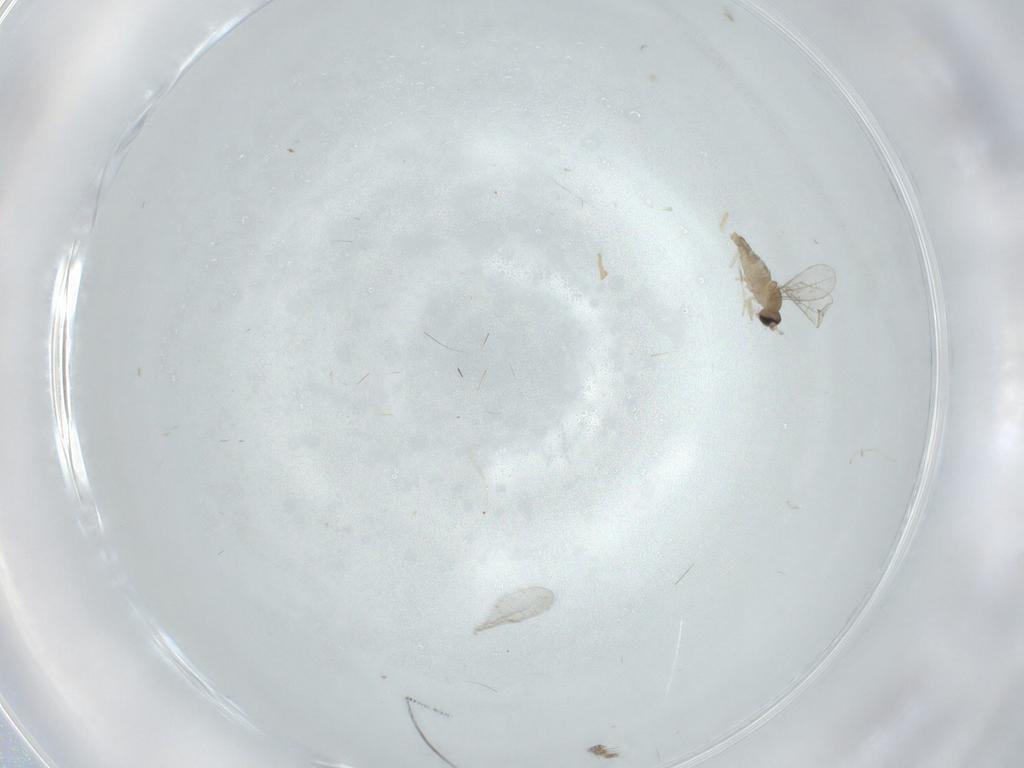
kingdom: Animalia
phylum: Arthropoda
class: Insecta
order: Diptera
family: Cecidomyiidae
